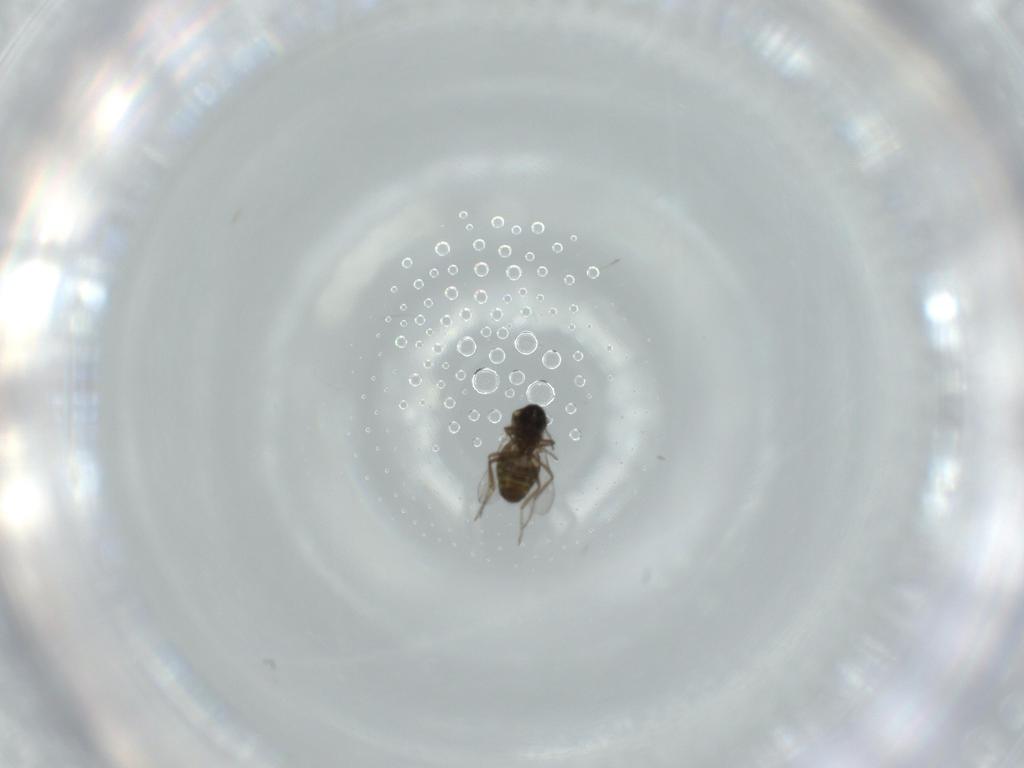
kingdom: Animalia
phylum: Arthropoda
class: Insecta
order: Diptera
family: Ceratopogonidae
